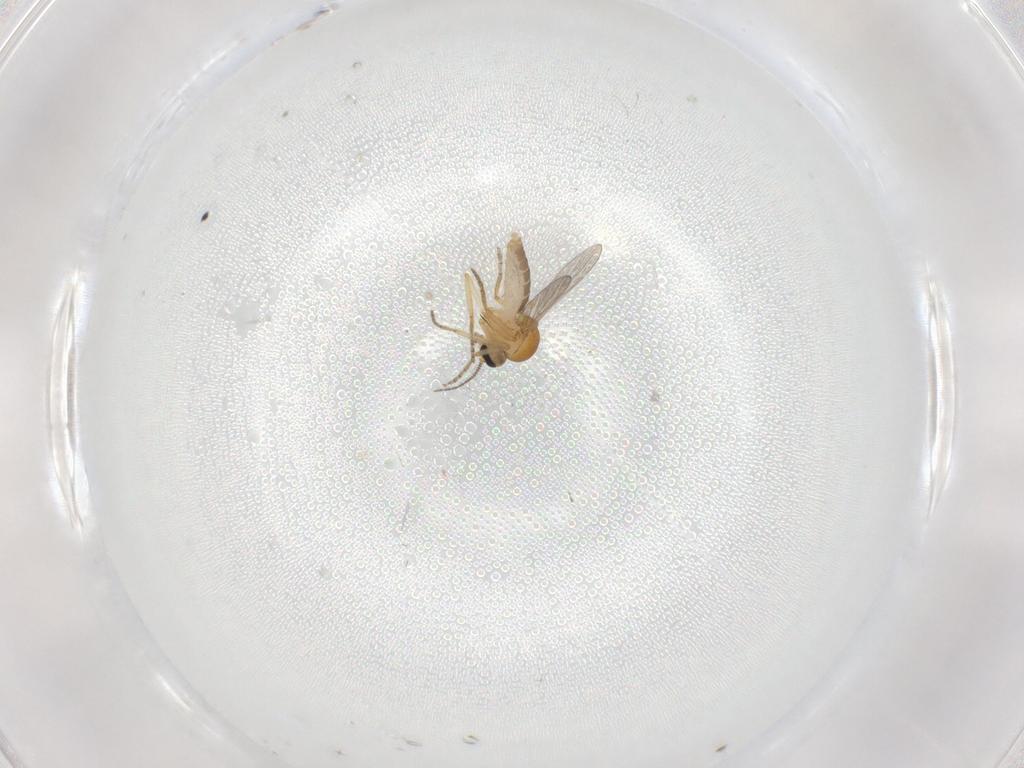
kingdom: Animalia
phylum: Arthropoda
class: Insecta
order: Diptera
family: Ceratopogonidae
